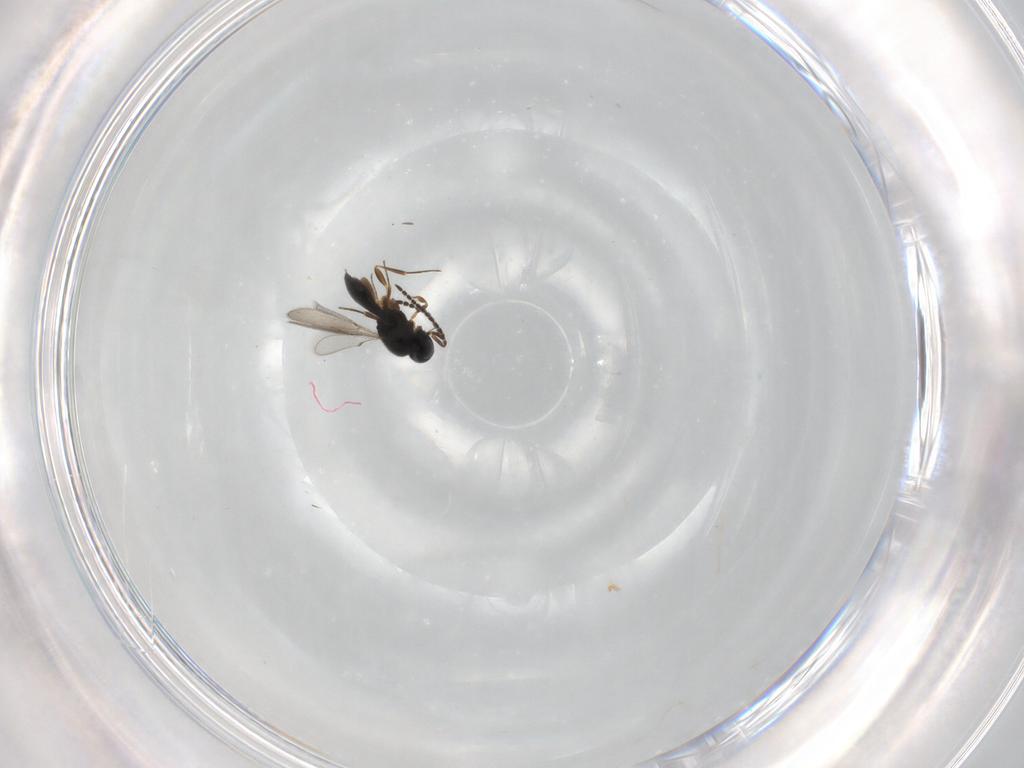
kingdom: Animalia
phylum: Arthropoda
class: Insecta
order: Hymenoptera
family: Scelionidae
